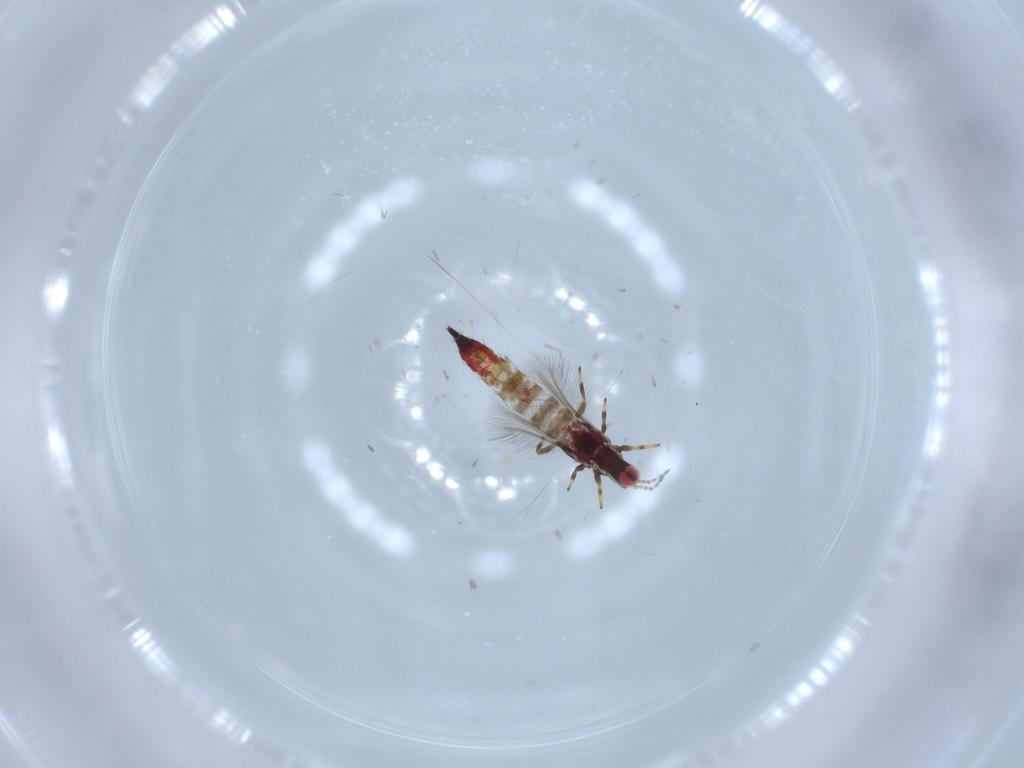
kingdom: Animalia
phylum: Arthropoda
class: Insecta
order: Thysanoptera
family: Phlaeothripidae
